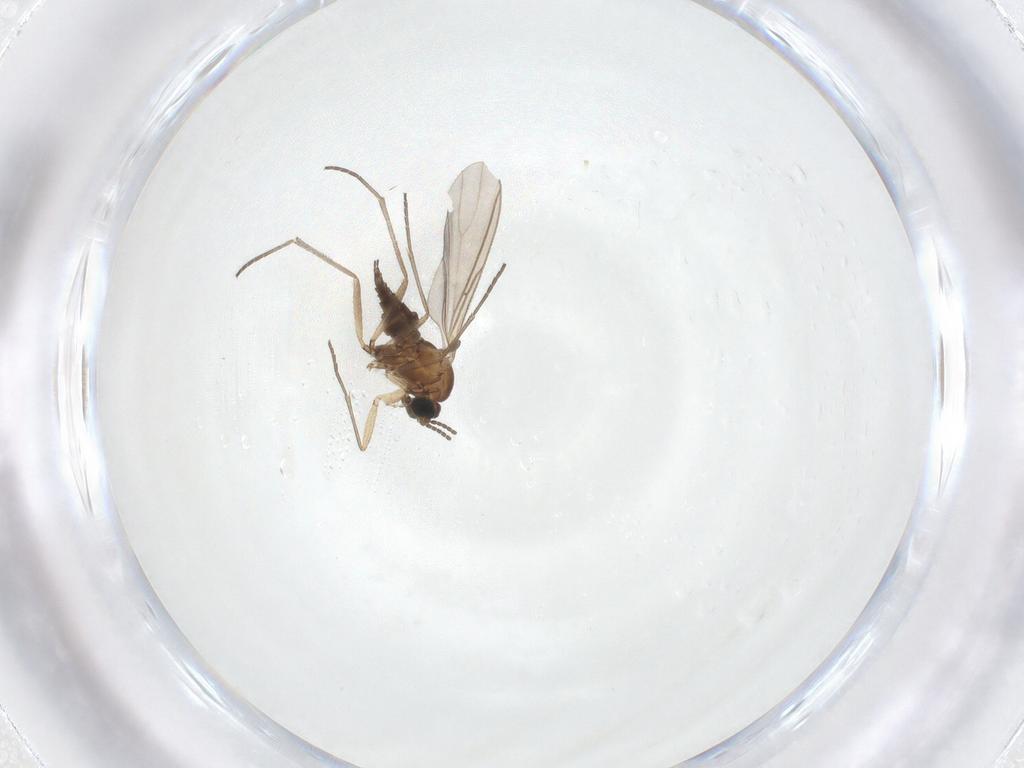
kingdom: Animalia
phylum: Arthropoda
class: Insecta
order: Diptera
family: Sciaridae
